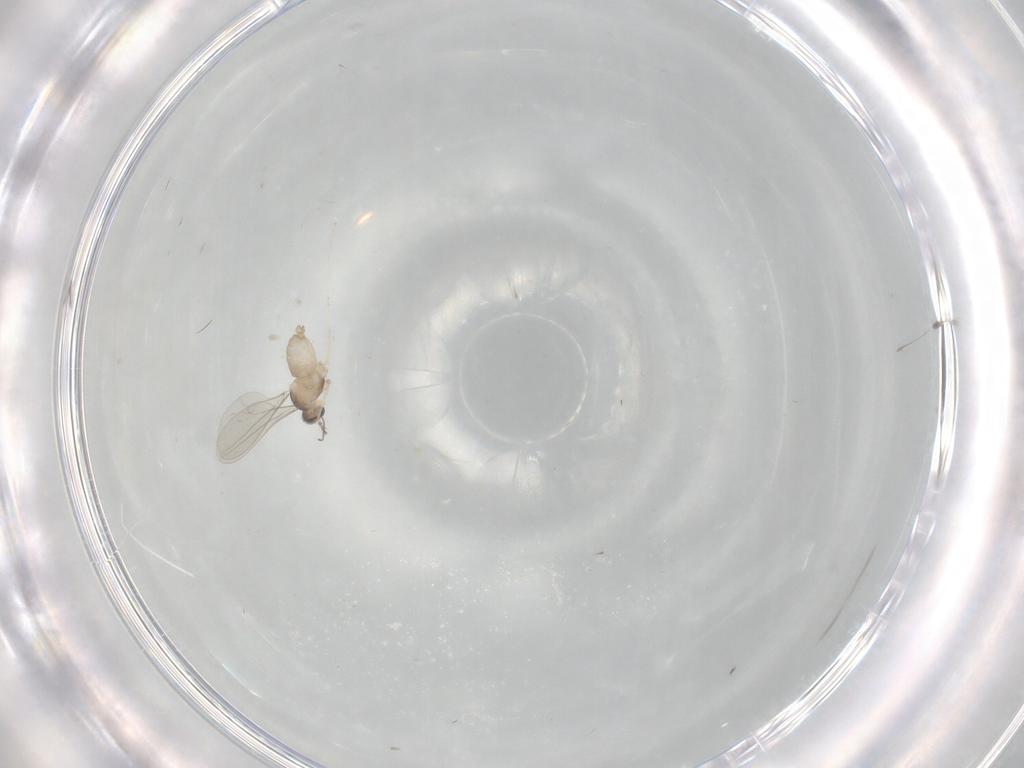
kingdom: Animalia
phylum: Arthropoda
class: Insecta
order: Diptera
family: Cecidomyiidae
